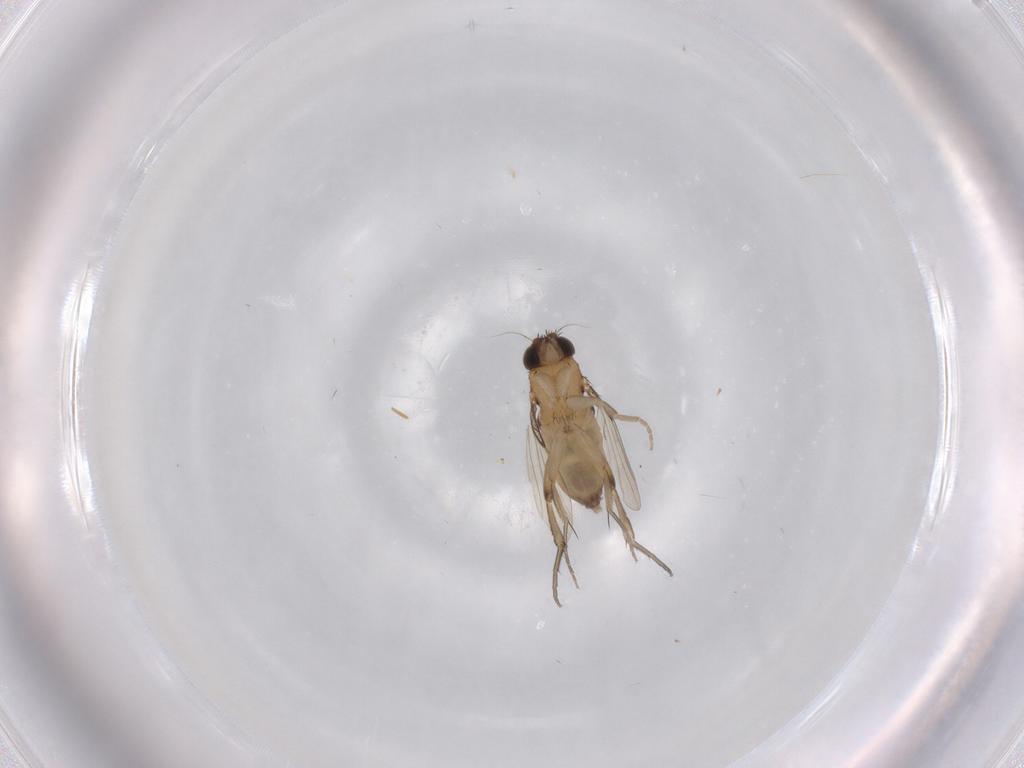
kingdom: Animalia
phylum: Arthropoda
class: Insecta
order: Diptera
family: Phoridae
